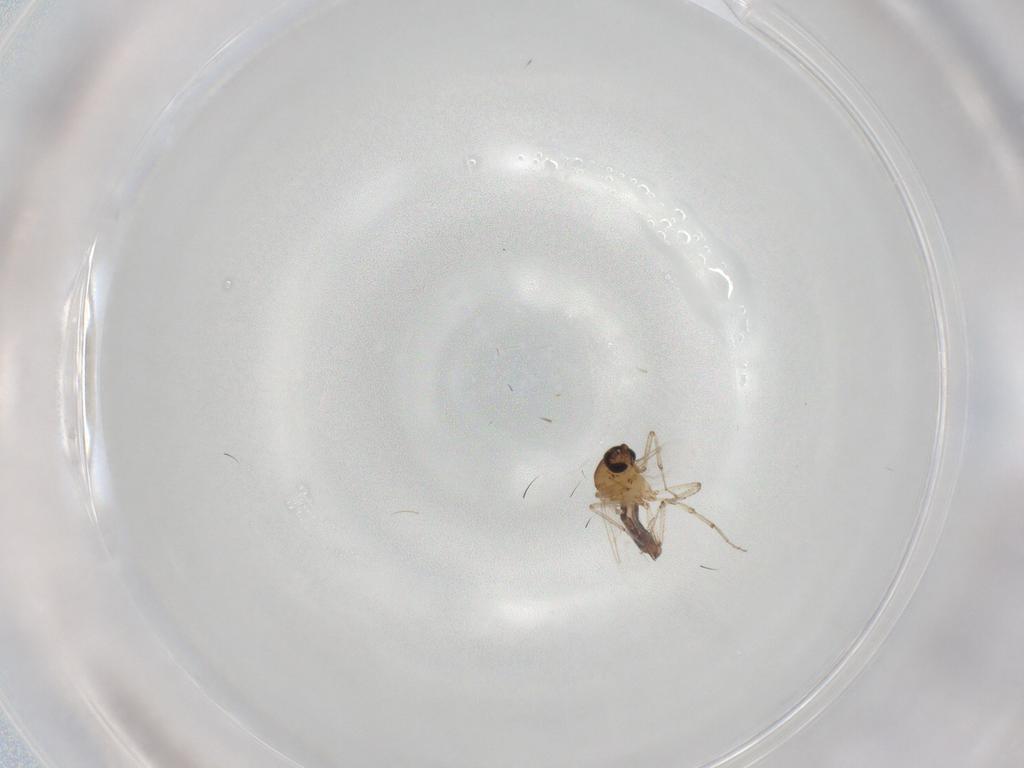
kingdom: Animalia
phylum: Arthropoda
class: Insecta
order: Diptera
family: Ceratopogonidae
